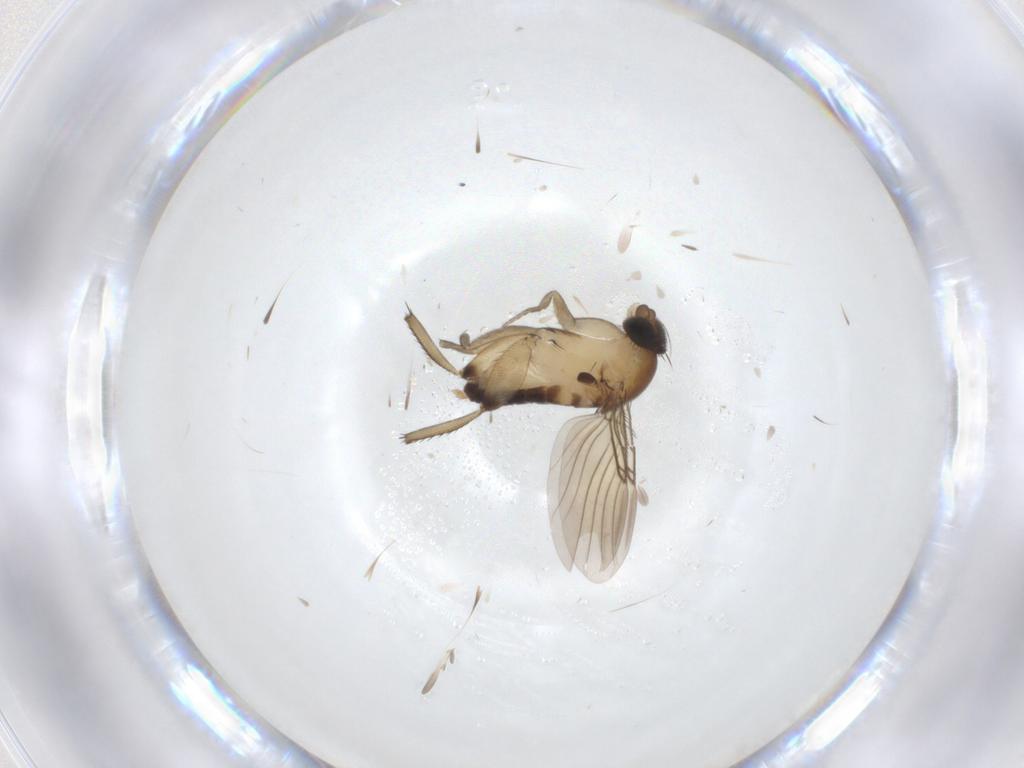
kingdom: Animalia
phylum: Arthropoda
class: Insecta
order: Diptera
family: Phoridae
